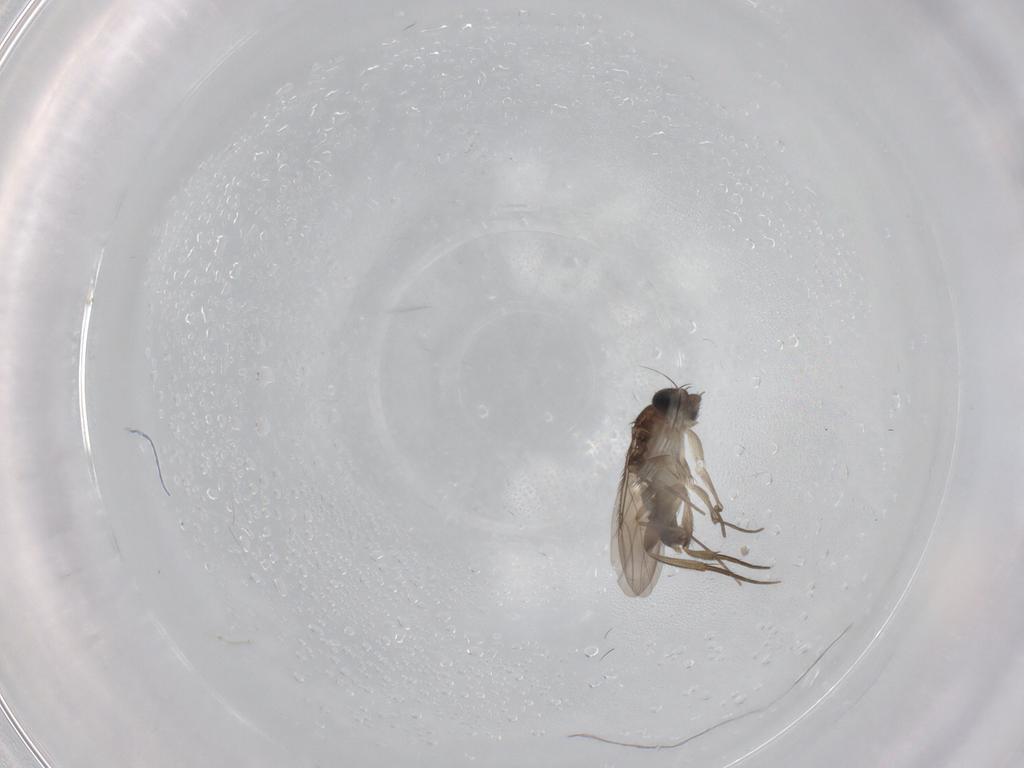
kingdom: Animalia
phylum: Arthropoda
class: Insecta
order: Diptera
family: Phoridae
